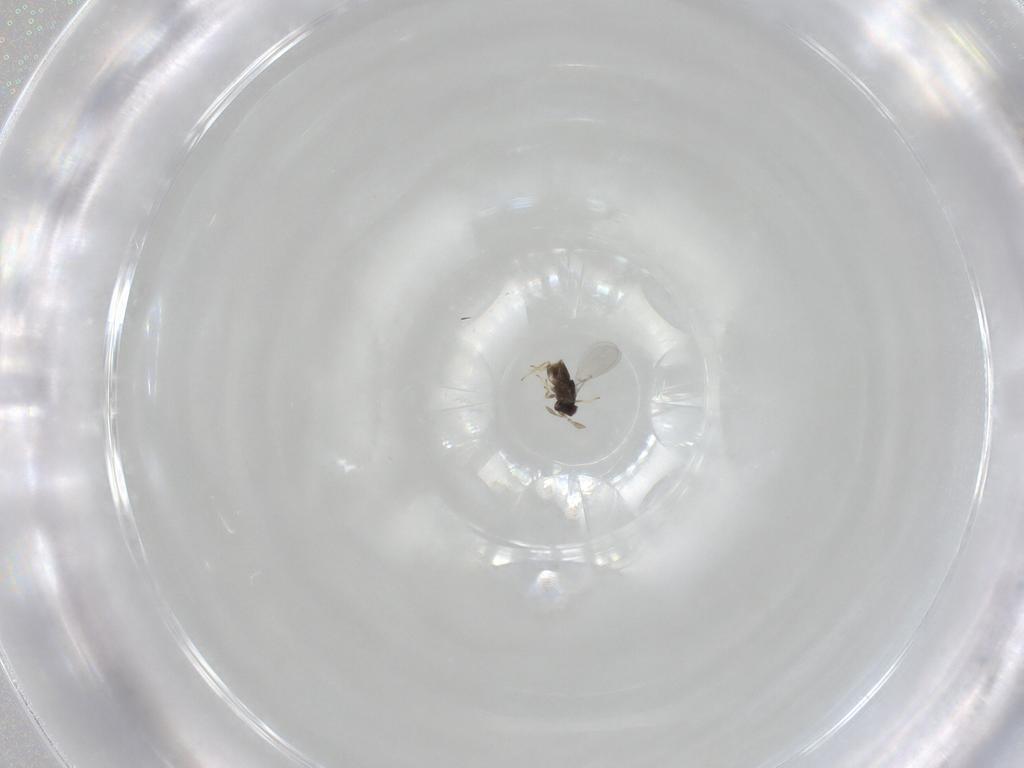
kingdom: Animalia
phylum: Arthropoda
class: Insecta
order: Hymenoptera
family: Encyrtidae
